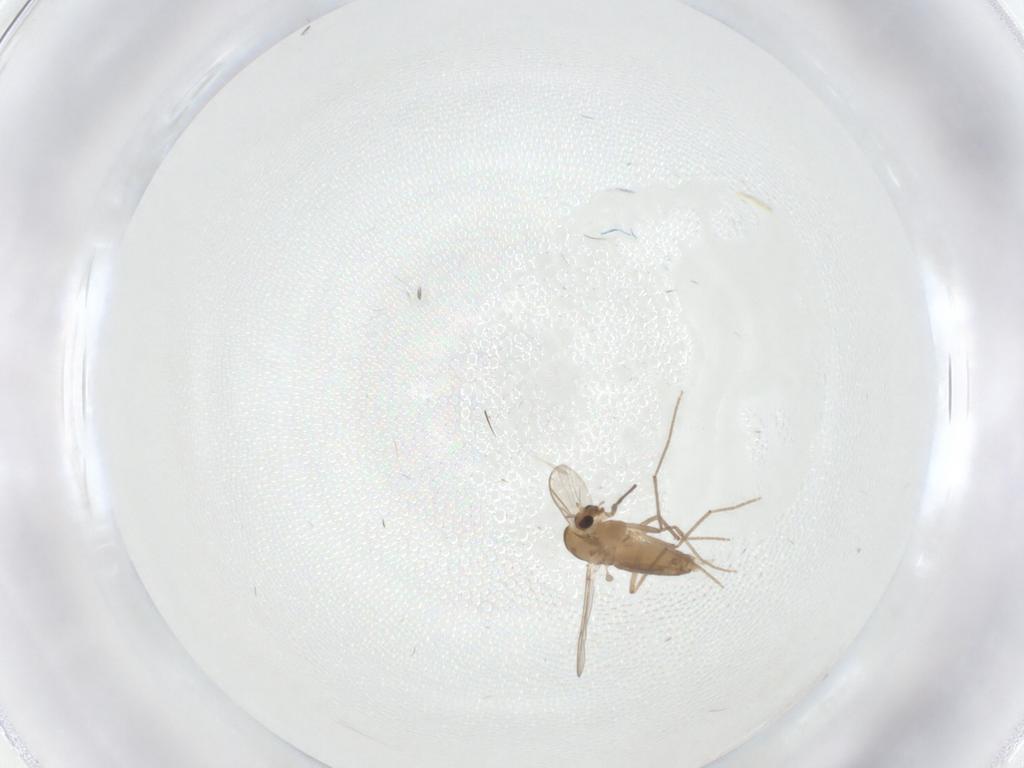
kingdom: Animalia
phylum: Arthropoda
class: Insecta
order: Diptera
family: Chironomidae
